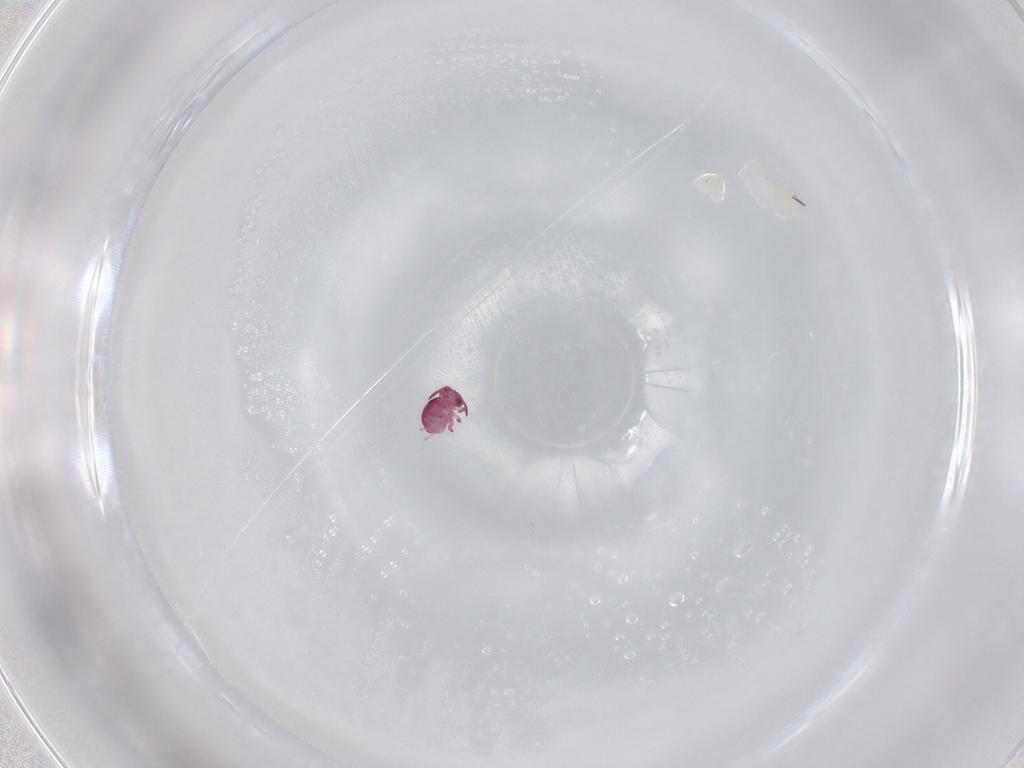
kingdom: Animalia
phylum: Arthropoda
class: Collembola
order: Symphypleona
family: Sminthurididae
